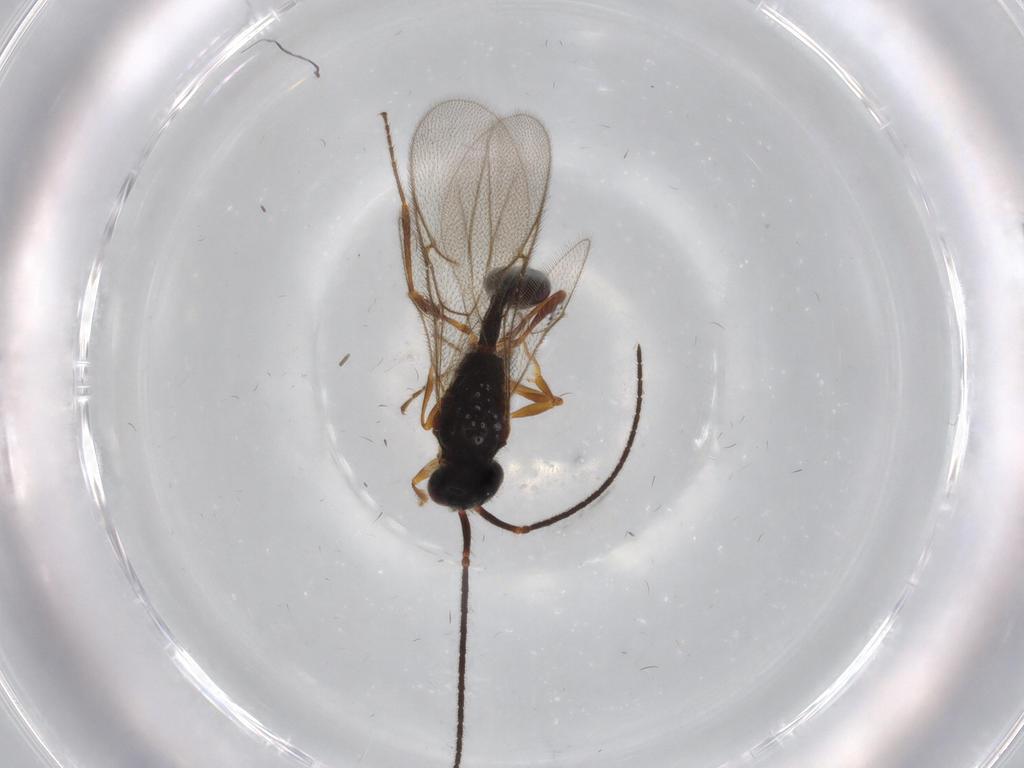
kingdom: Animalia
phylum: Arthropoda
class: Insecta
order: Hymenoptera
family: Diapriidae
